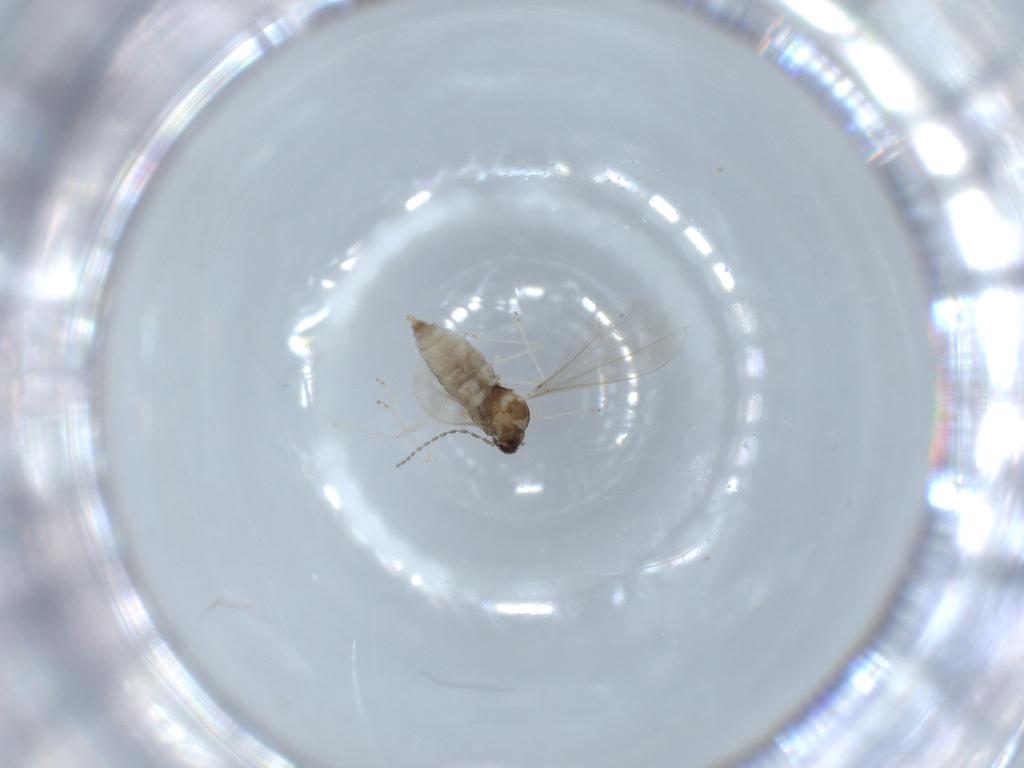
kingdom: Animalia
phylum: Arthropoda
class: Insecta
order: Diptera
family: Cecidomyiidae
